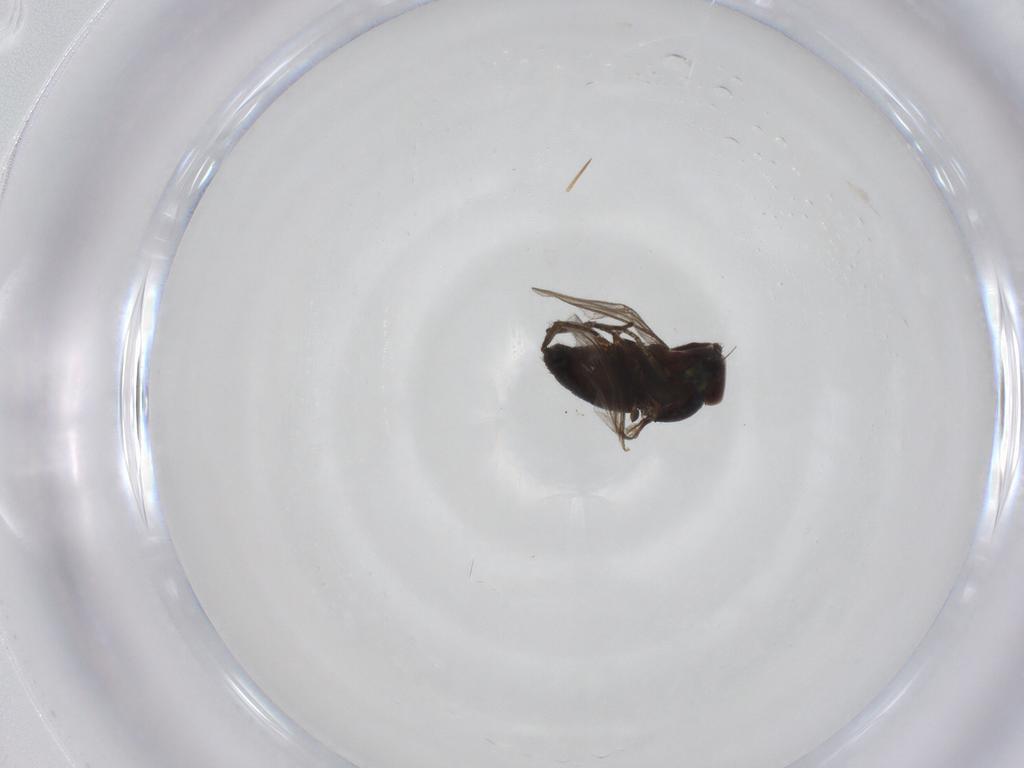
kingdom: Animalia
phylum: Arthropoda
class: Insecta
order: Diptera
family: Dolichopodidae
